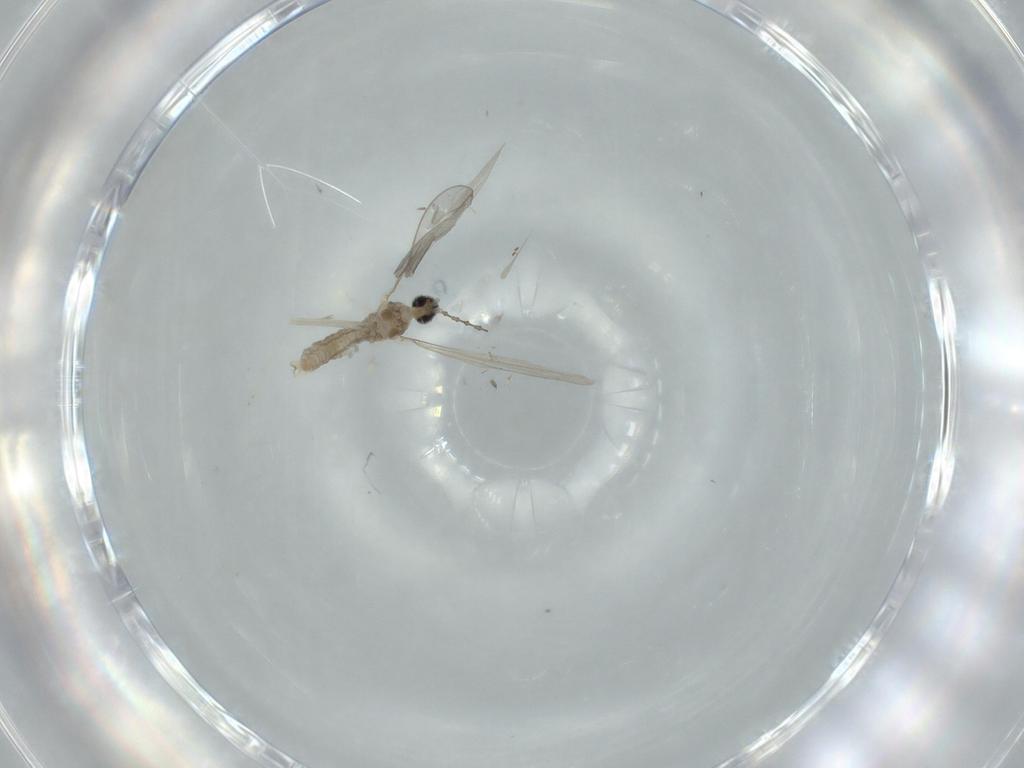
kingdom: Animalia
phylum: Arthropoda
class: Insecta
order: Diptera
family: Cecidomyiidae
